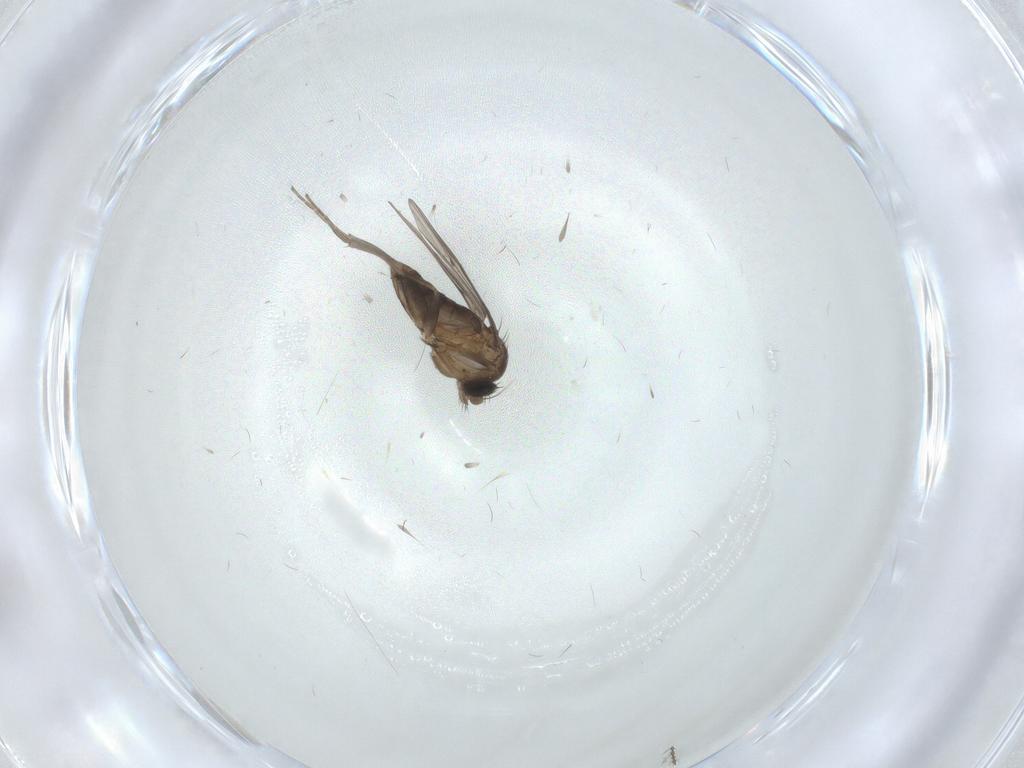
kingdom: Animalia
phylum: Arthropoda
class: Insecta
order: Diptera
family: Phoridae
